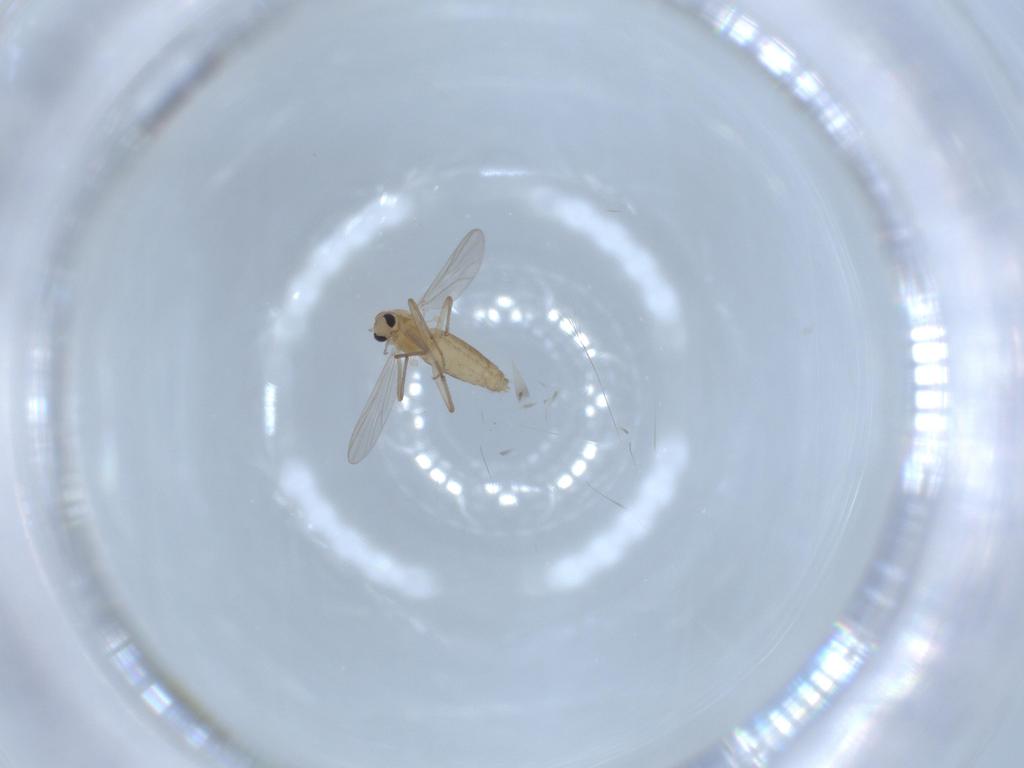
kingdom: Animalia
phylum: Arthropoda
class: Insecta
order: Diptera
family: Chironomidae
